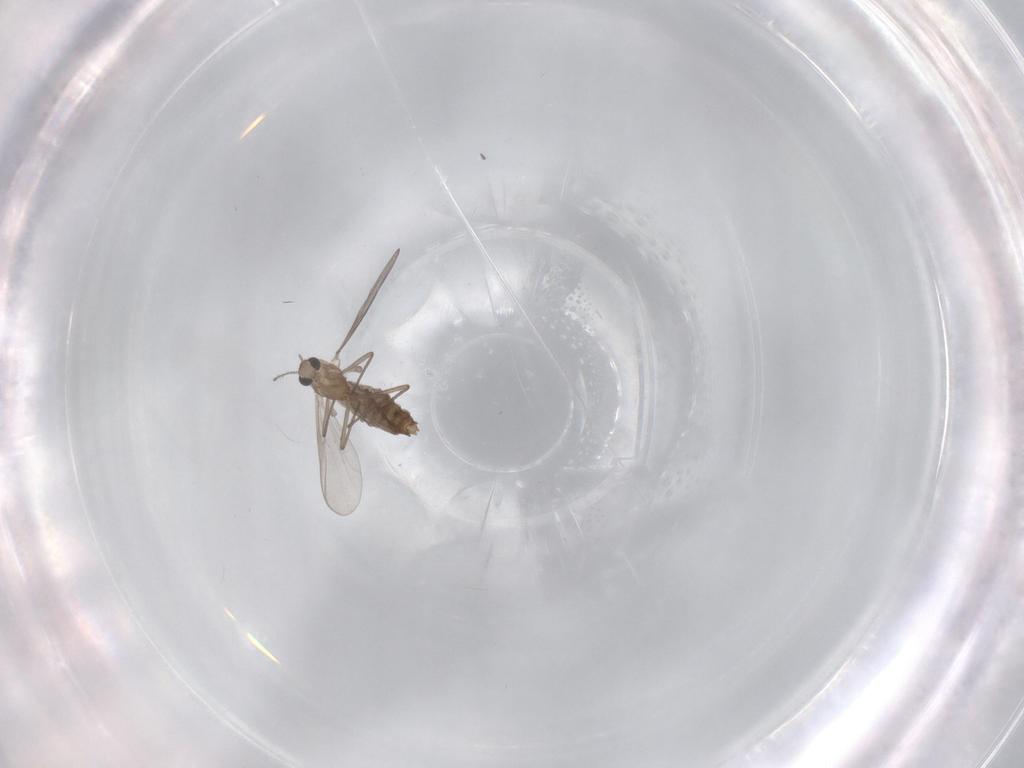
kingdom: Animalia
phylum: Arthropoda
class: Insecta
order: Diptera
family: Chironomidae
